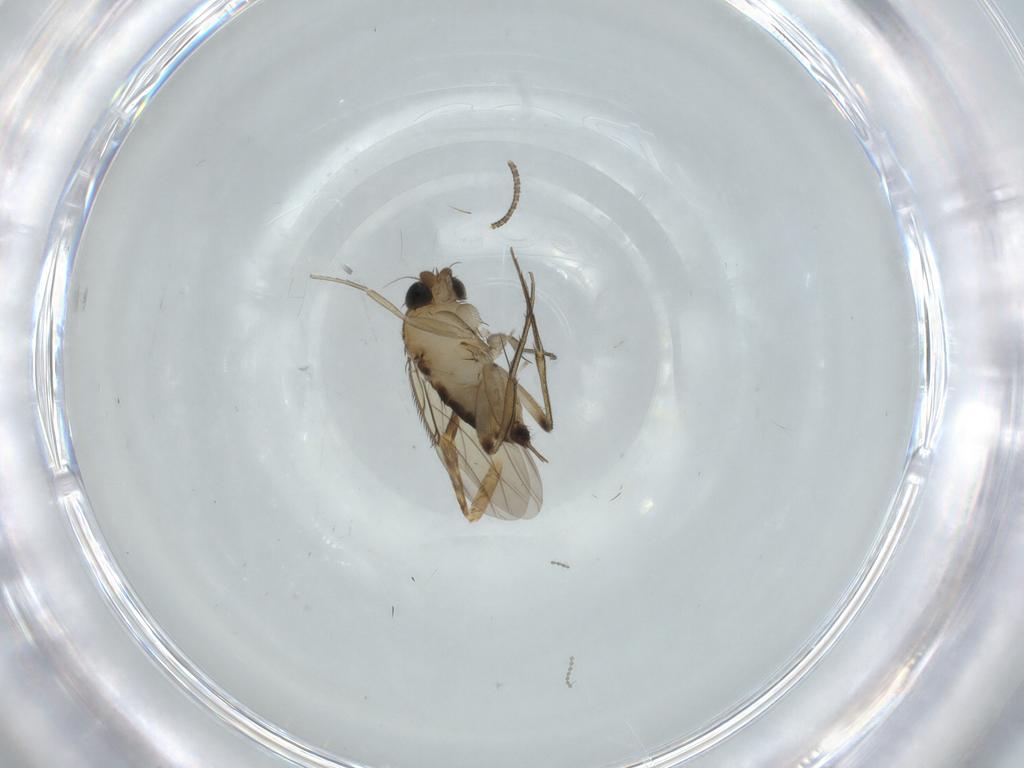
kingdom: Animalia
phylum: Arthropoda
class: Insecta
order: Diptera
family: Phoridae
